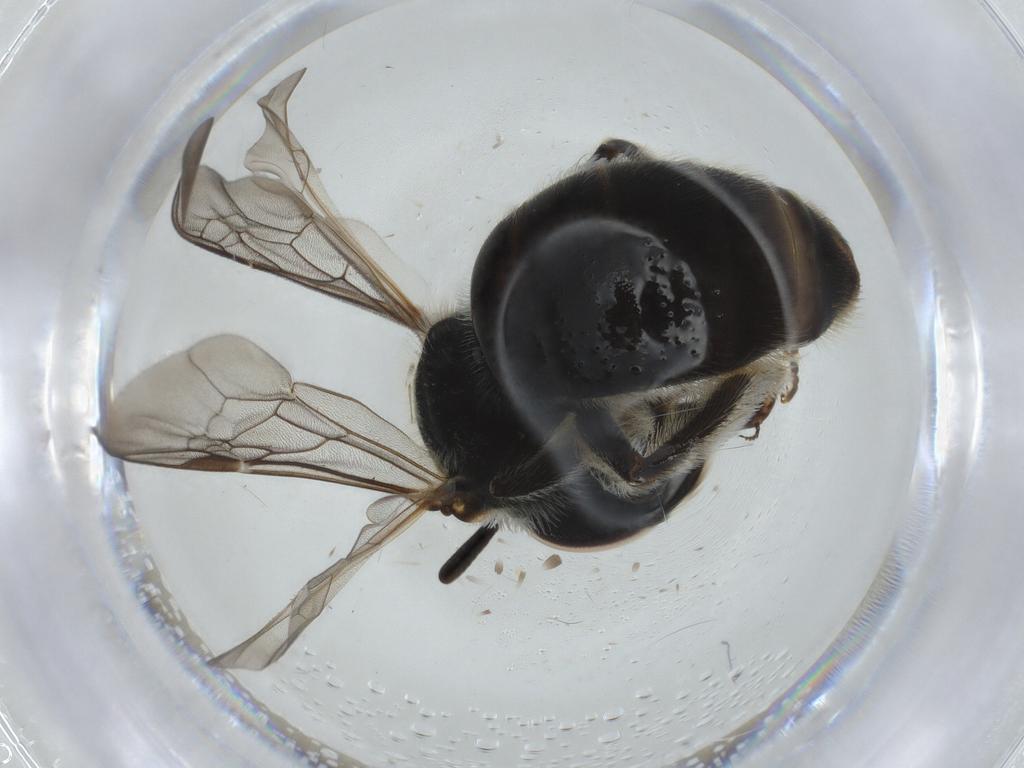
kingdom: Animalia
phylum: Arthropoda
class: Insecta
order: Hymenoptera
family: Halictidae
